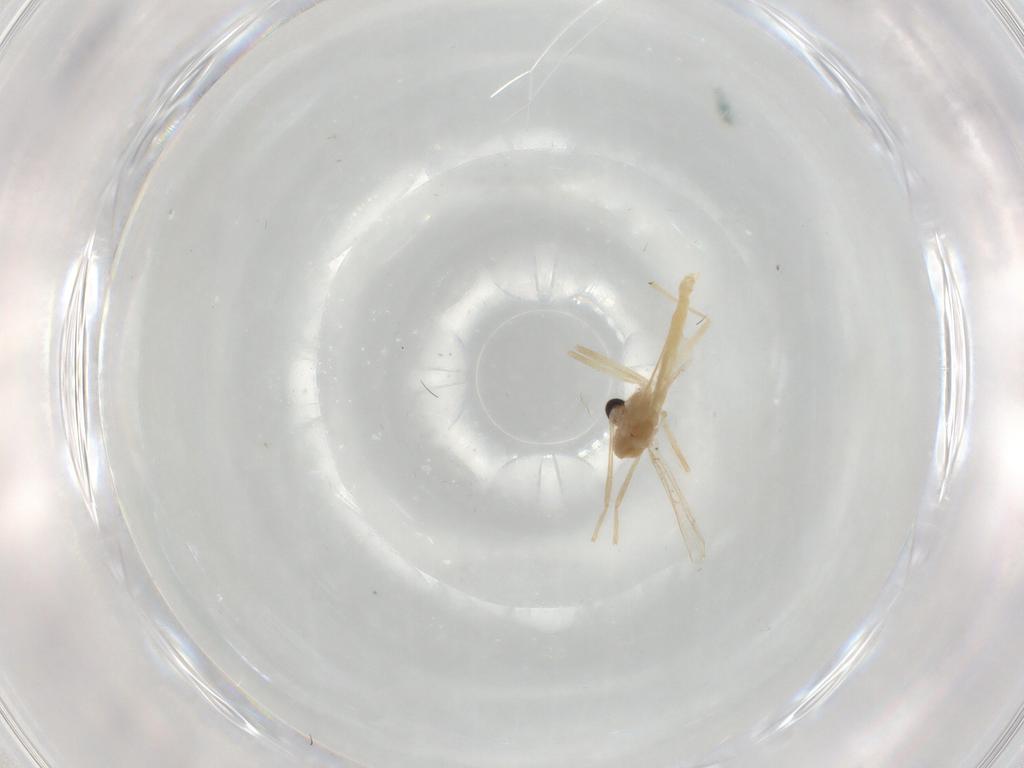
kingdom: Animalia
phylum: Arthropoda
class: Insecta
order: Diptera
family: Chironomidae
